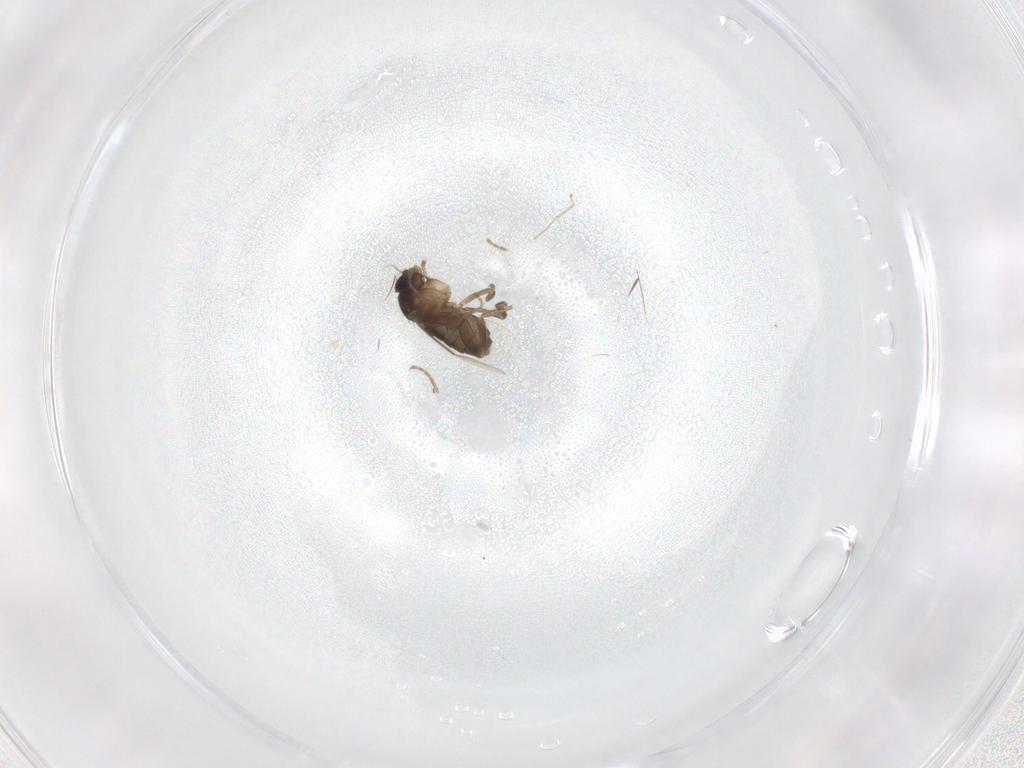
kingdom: Animalia
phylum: Arthropoda
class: Insecta
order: Diptera
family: Phoridae
